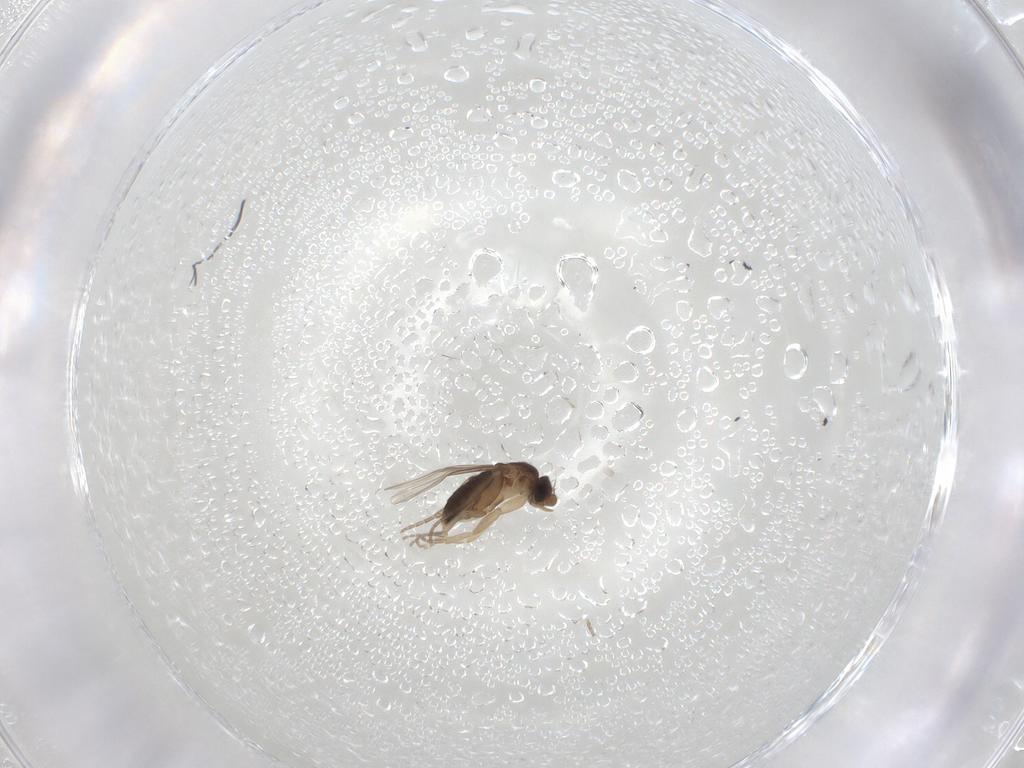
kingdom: Animalia
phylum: Arthropoda
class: Insecta
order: Diptera
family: Phoridae
